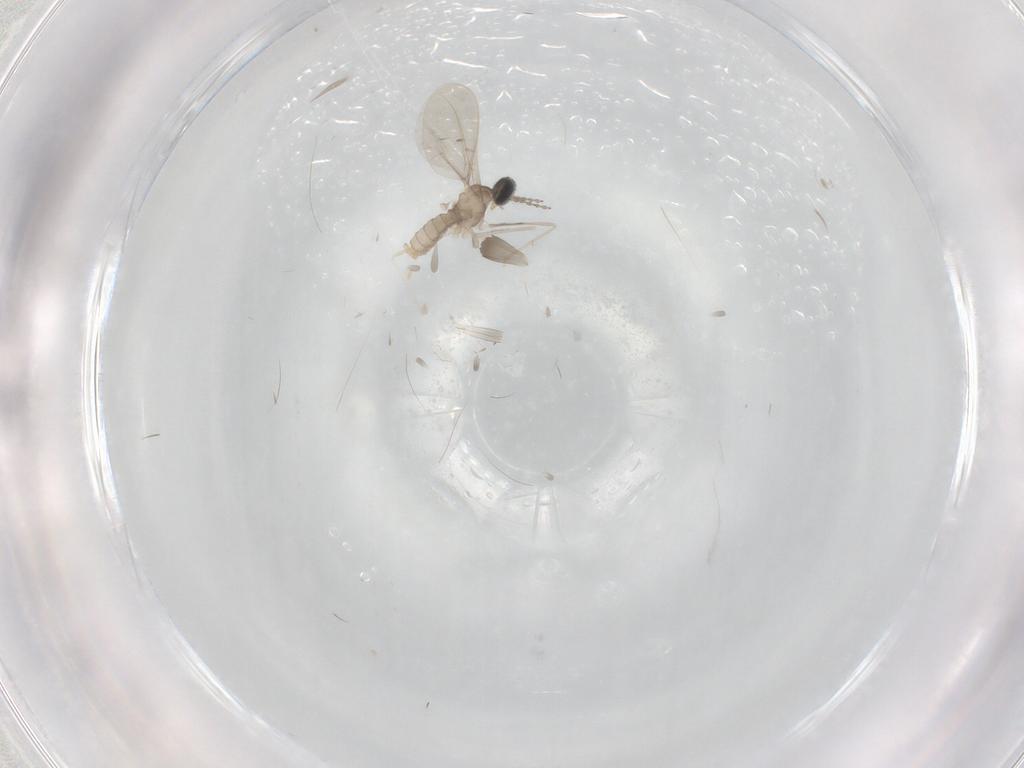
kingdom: Animalia
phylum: Arthropoda
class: Insecta
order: Diptera
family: Cecidomyiidae
